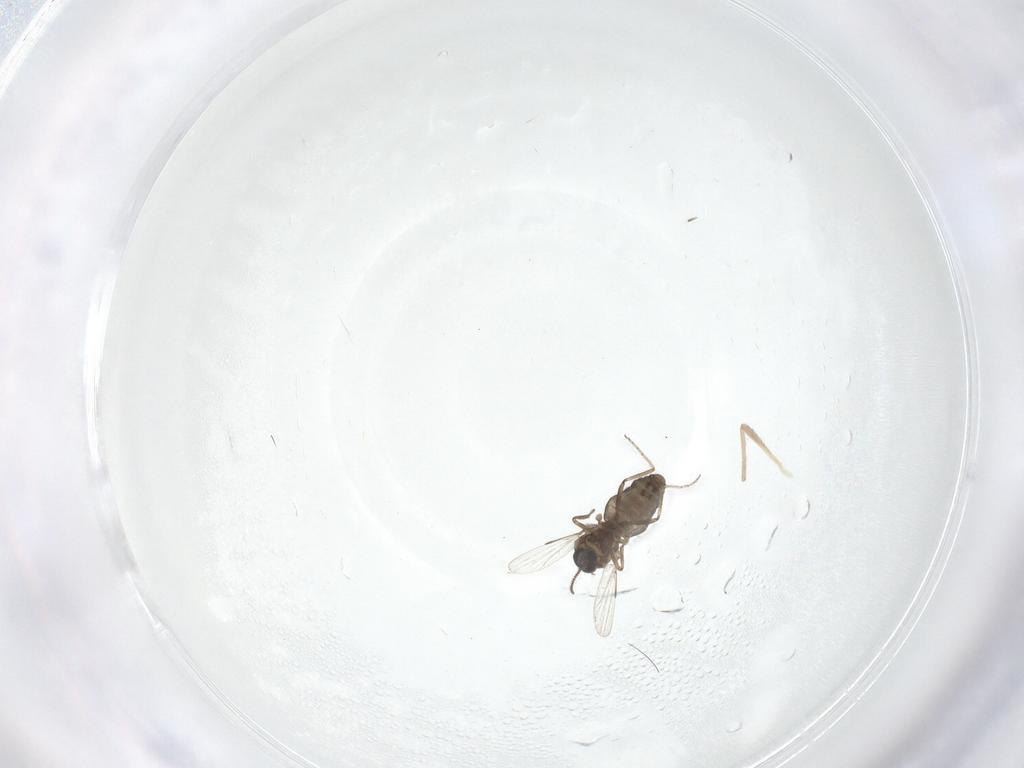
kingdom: Animalia
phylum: Arthropoda
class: Insecta
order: Diptera
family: Ceratopogonidae
